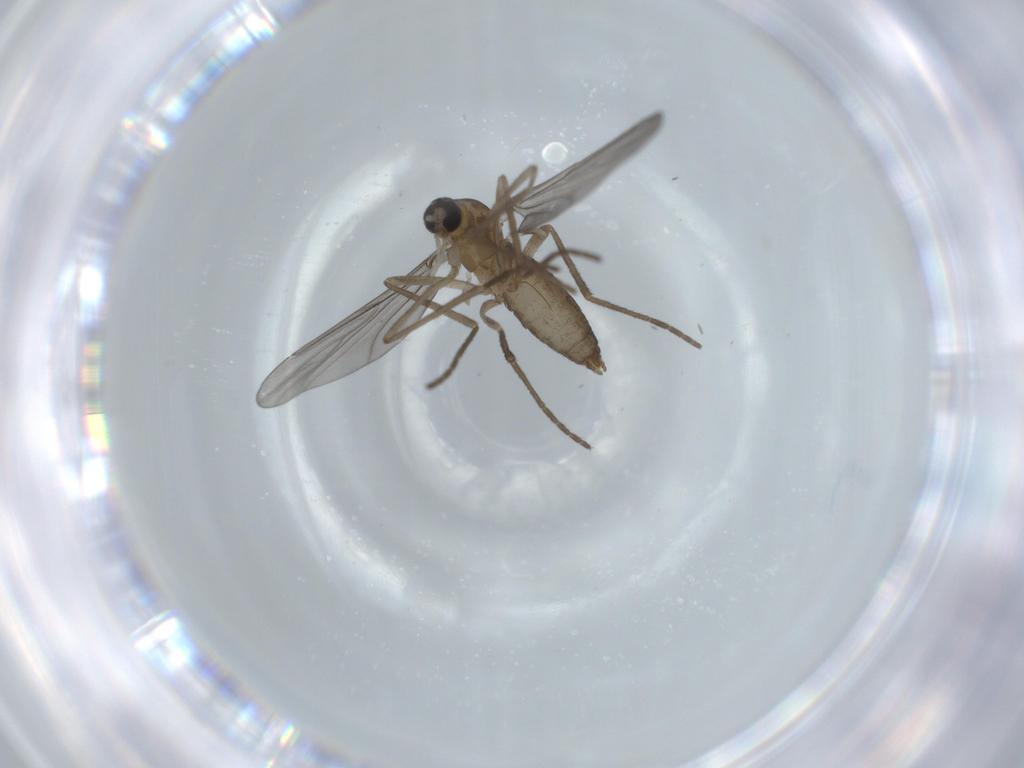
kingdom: Animalia
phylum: Arthropoda
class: Insecta
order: Diptera
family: Cecidomyiidae
